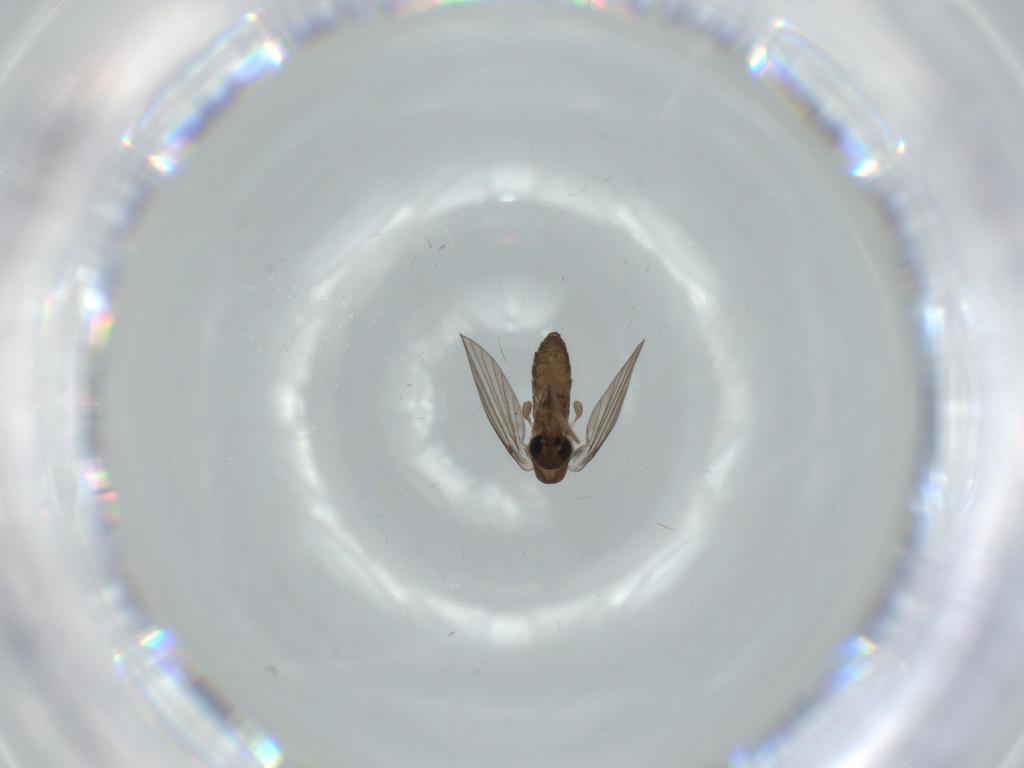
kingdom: Animalia
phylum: Arthropoda
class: Insecta
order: Diptera
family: Psychodidae
